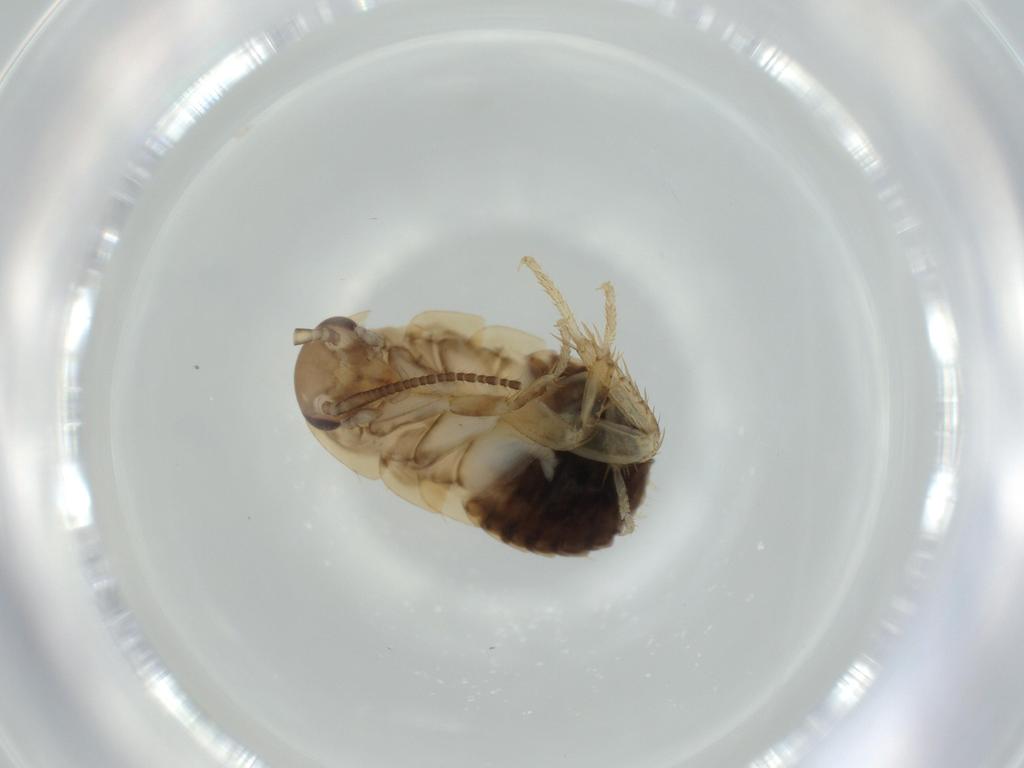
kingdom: Animalia
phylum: Arthropoda
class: Insecta
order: Blattodea
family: Ectobiidae
